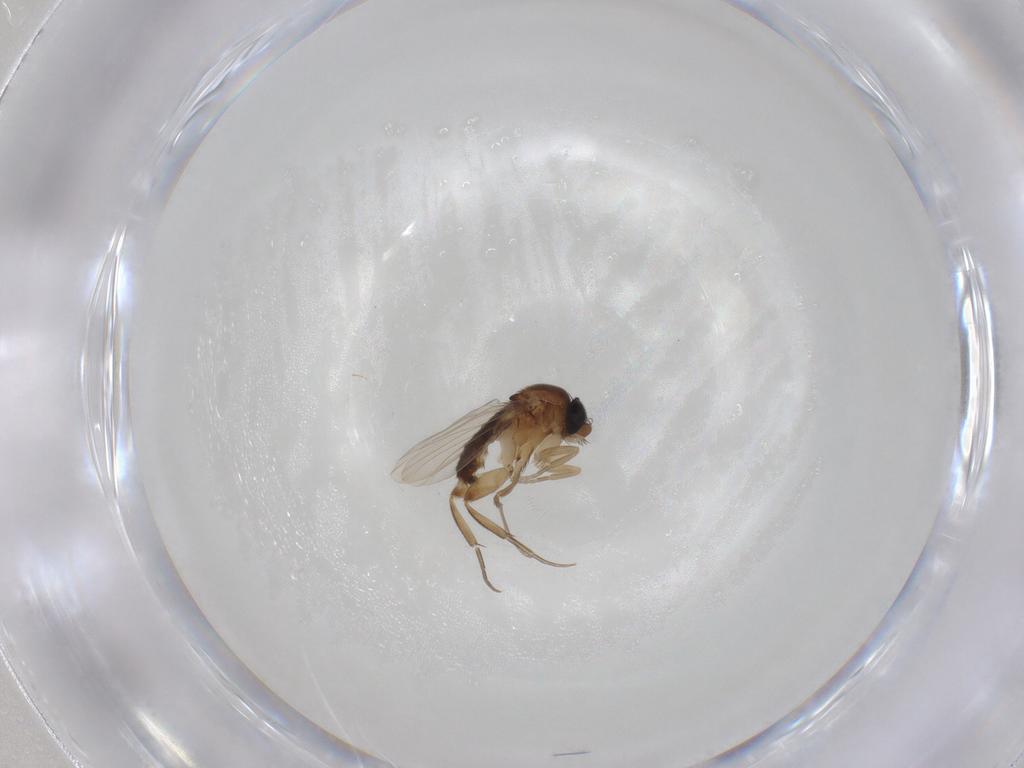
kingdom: Animalia
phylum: Arthropoda
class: Insecta
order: Diptera
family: Phoridae
